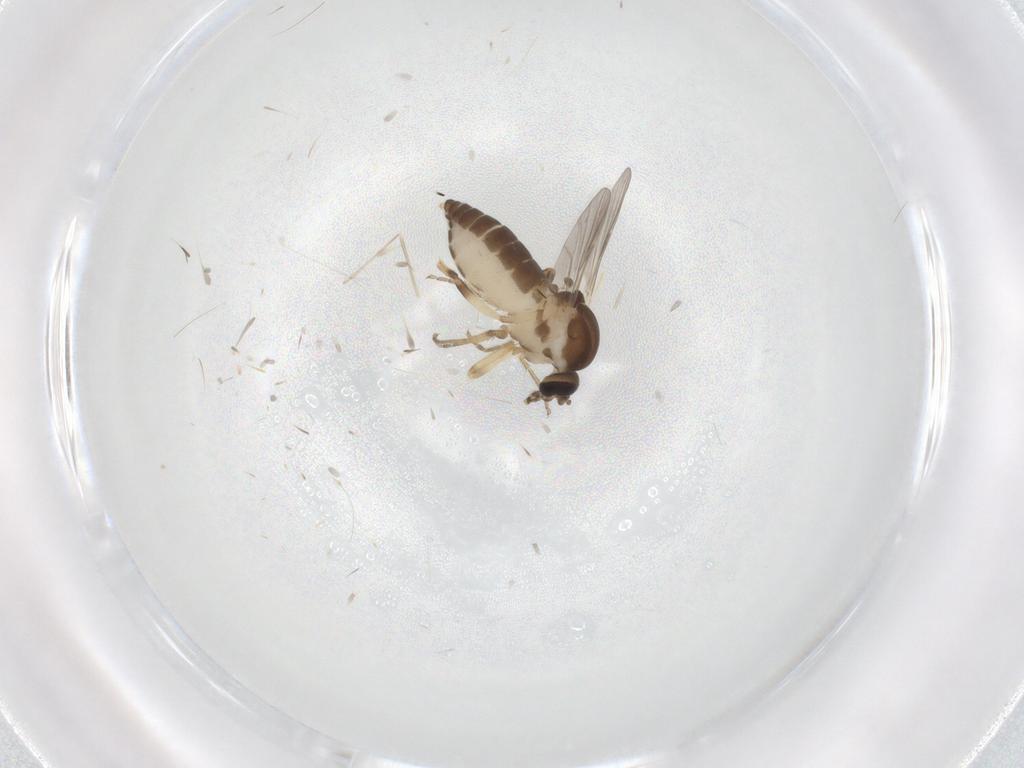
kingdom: Animalia
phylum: Arthropoda
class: Insecta
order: Diptera
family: Ceratopogonidae
